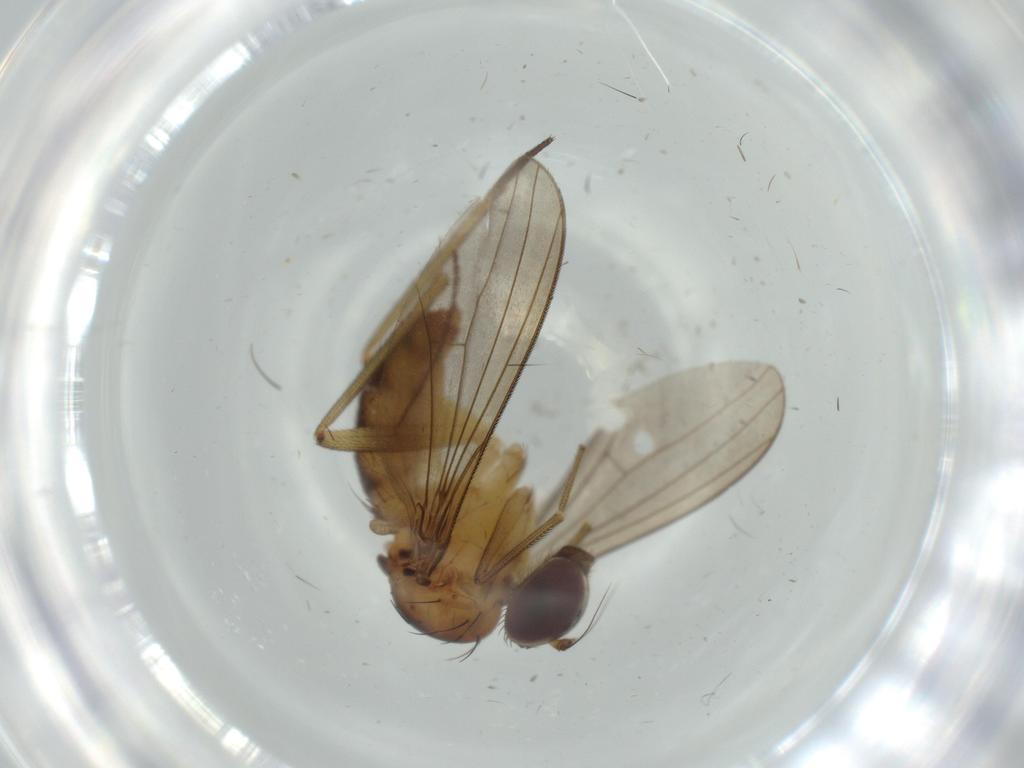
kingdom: Animalia
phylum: Arthropoda
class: Insecta
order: Diptera
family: Limoniidae
